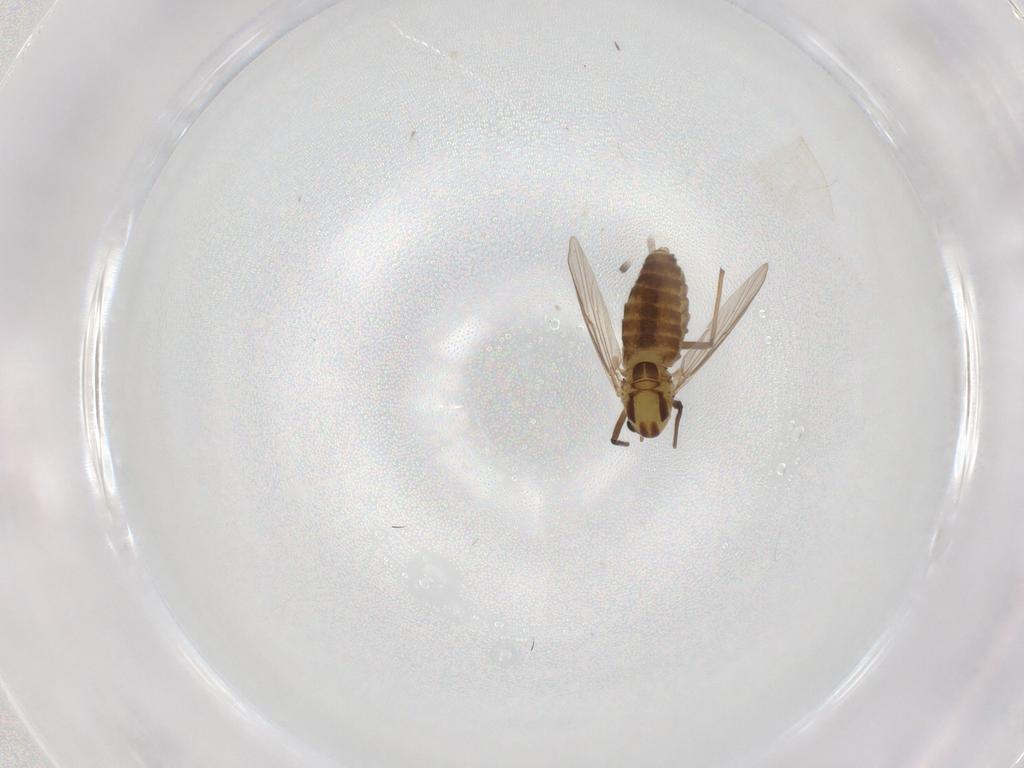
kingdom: Animalia
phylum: Arthropoda
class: Insecta
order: Diptera
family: Chironomidae
